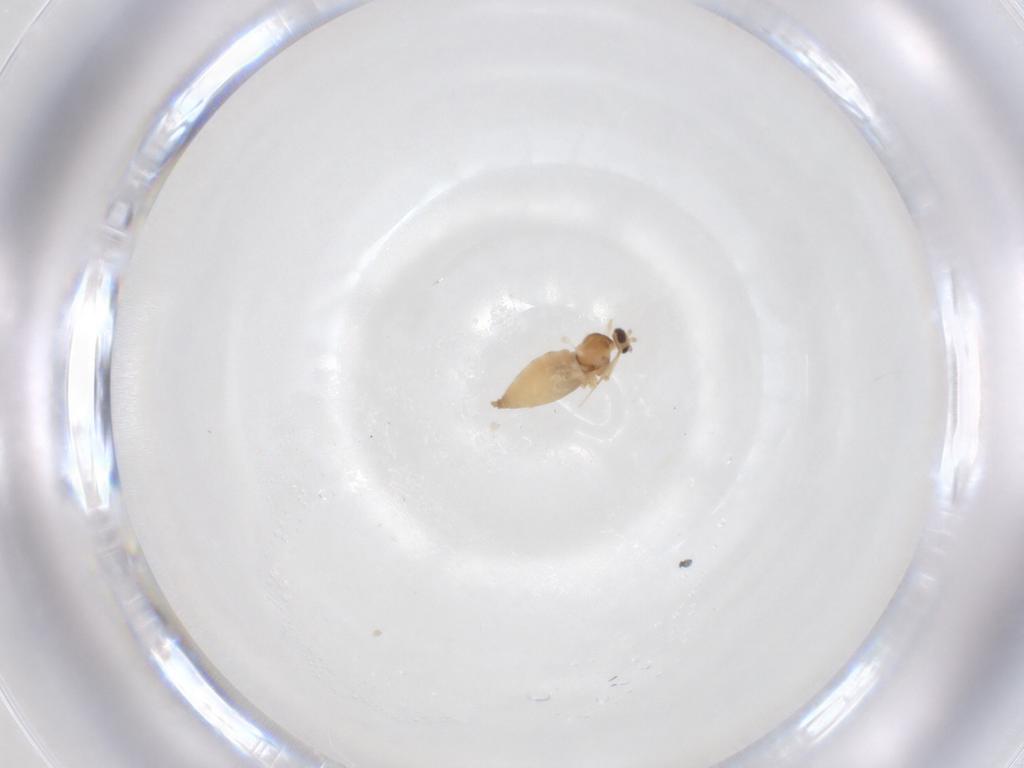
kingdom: Animalia
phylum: Arthropoda
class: Insecta
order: Diptera
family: Cecidomyiidae
